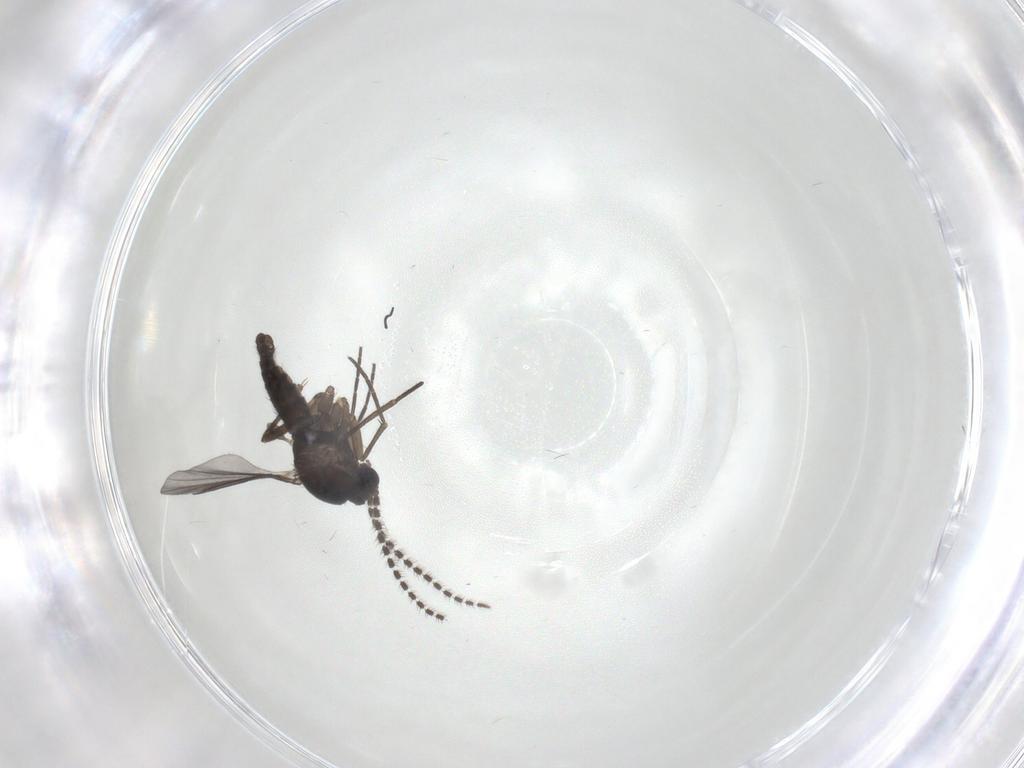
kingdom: Animalia
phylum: Arthropoda
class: Insecta
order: Diptera
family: Sciaridae
